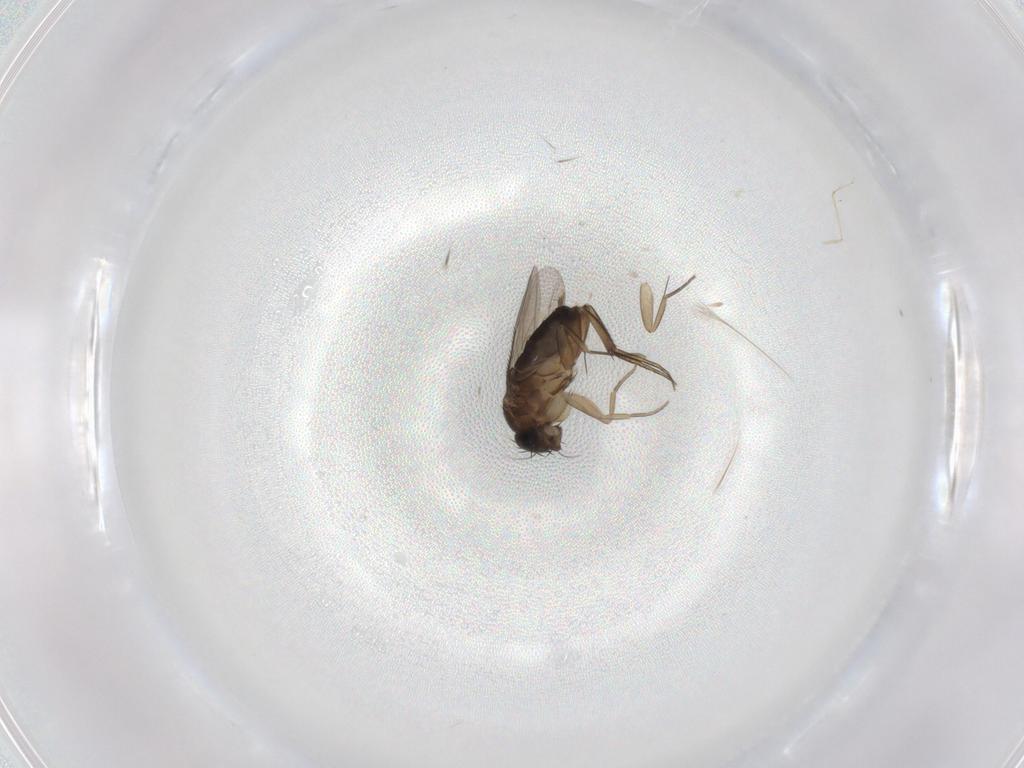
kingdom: Animalia
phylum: Arthropoda
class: Insecta
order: Diptera
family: Phoridae
